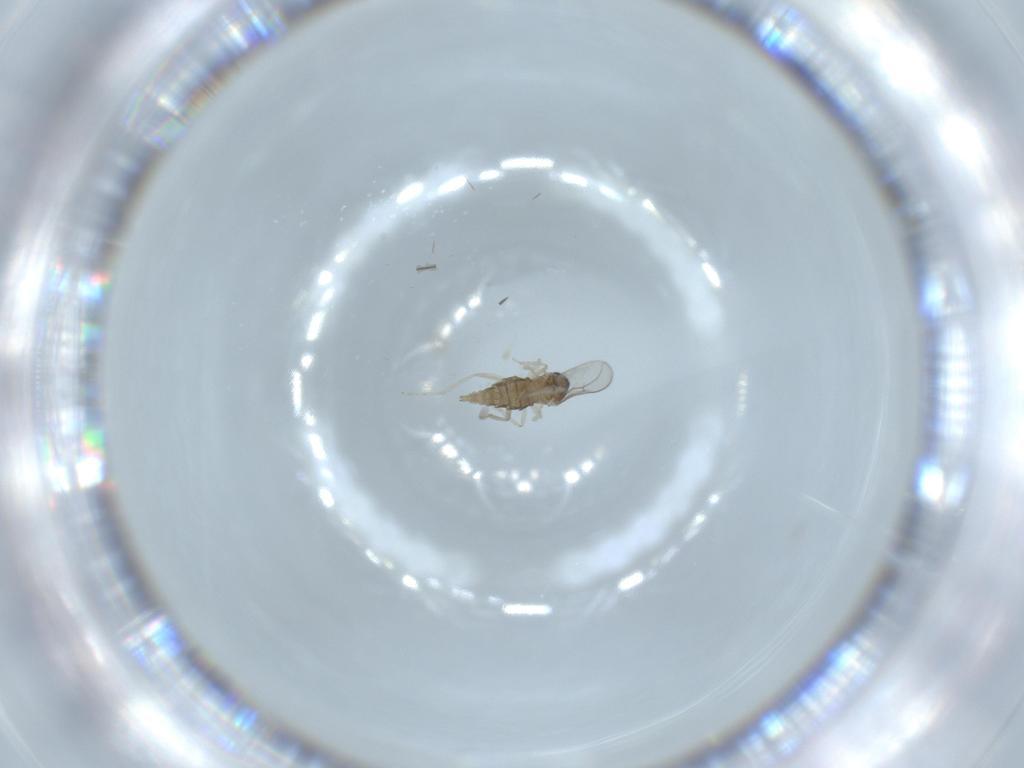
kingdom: Animalia
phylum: Arthropoda
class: Insecta
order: Diptera
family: Cecidomyiidae
